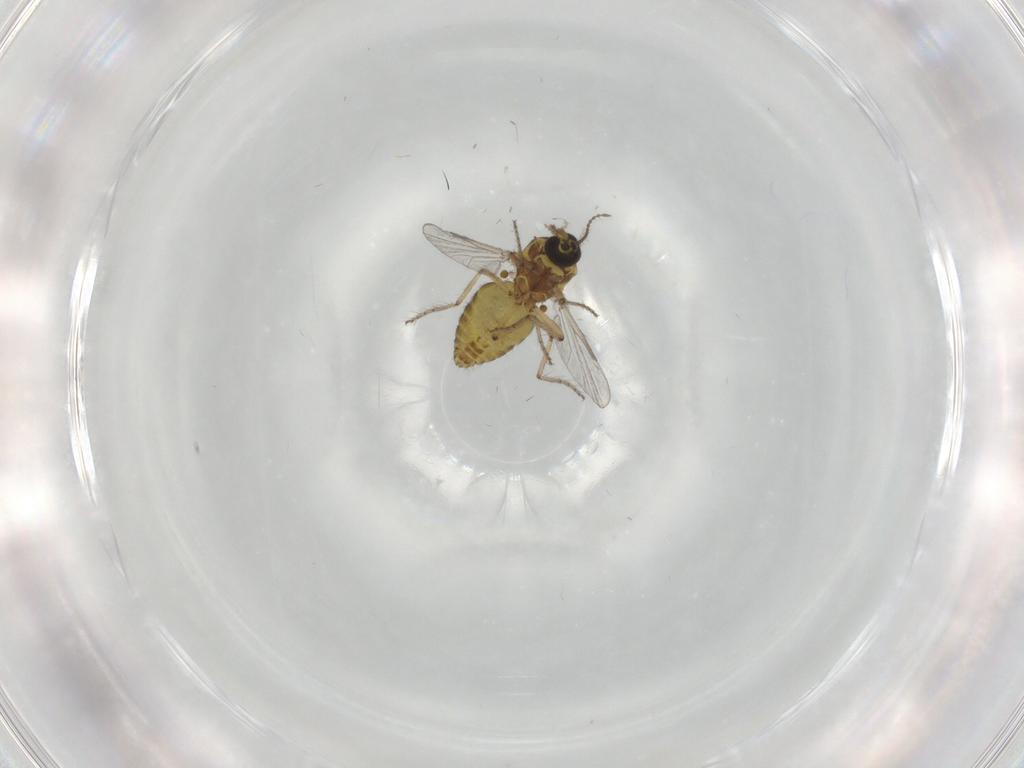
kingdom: Animalia
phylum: Arthropoda
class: Insecta
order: Diptera
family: Ceratopogonidae
